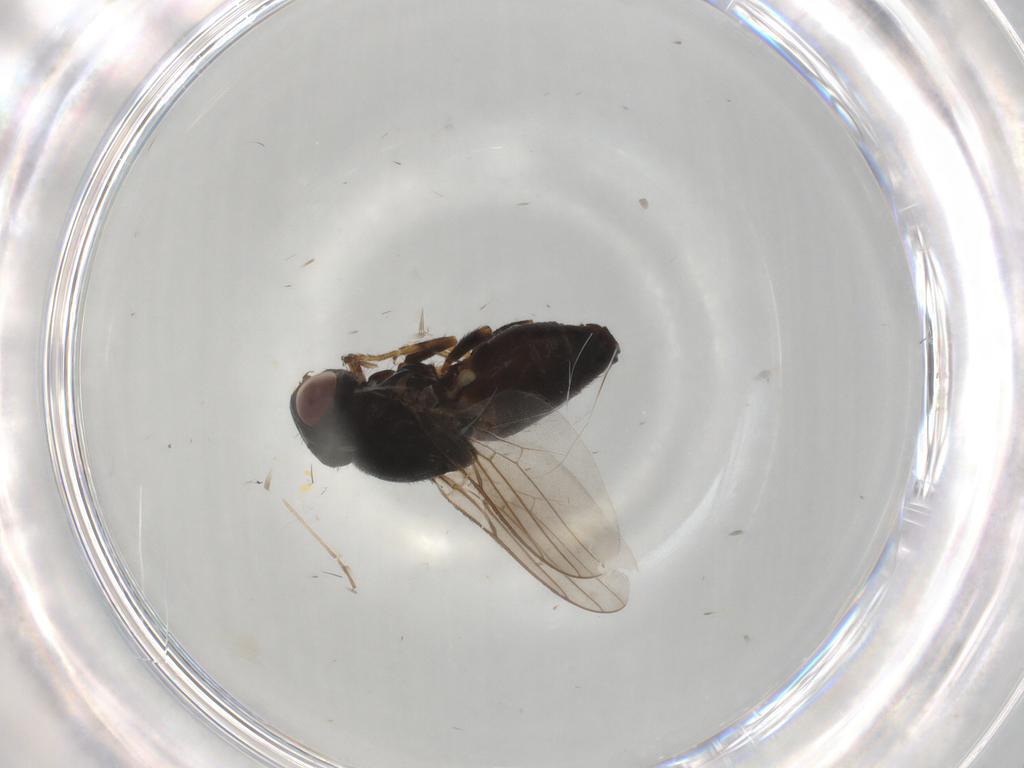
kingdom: Animalia
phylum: Arthropoda
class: Insecta
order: Diptera
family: Chloropidae
